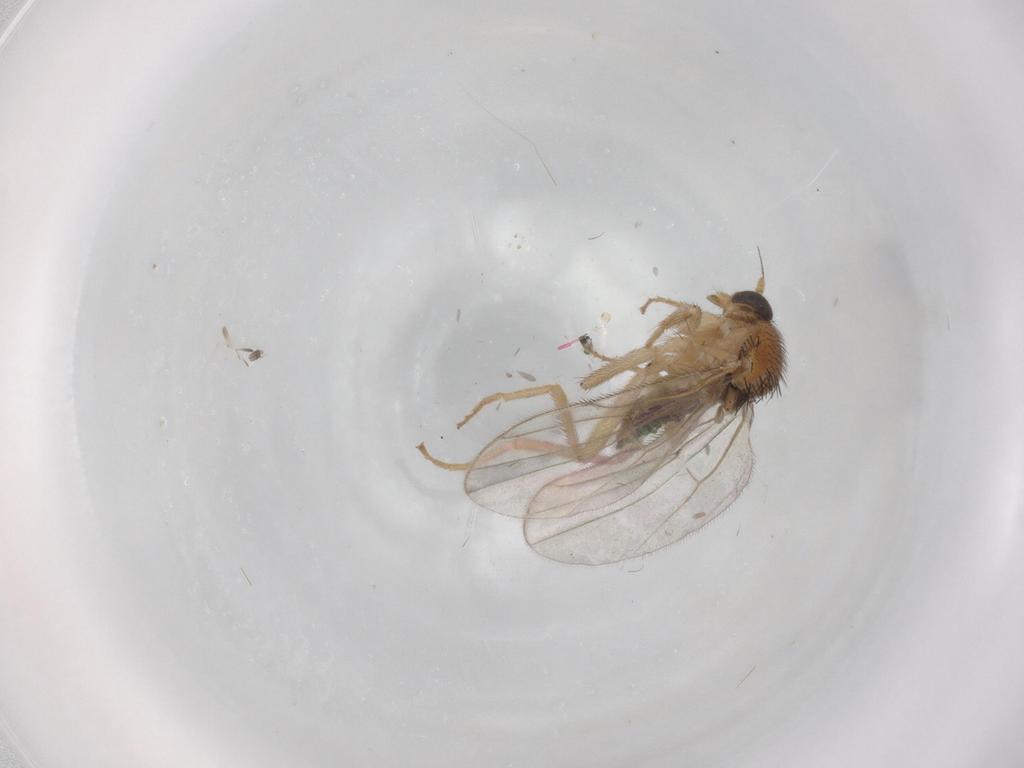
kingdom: Animalia
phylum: Arthropoda
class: Insecta
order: Diptera
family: Hybotidae
